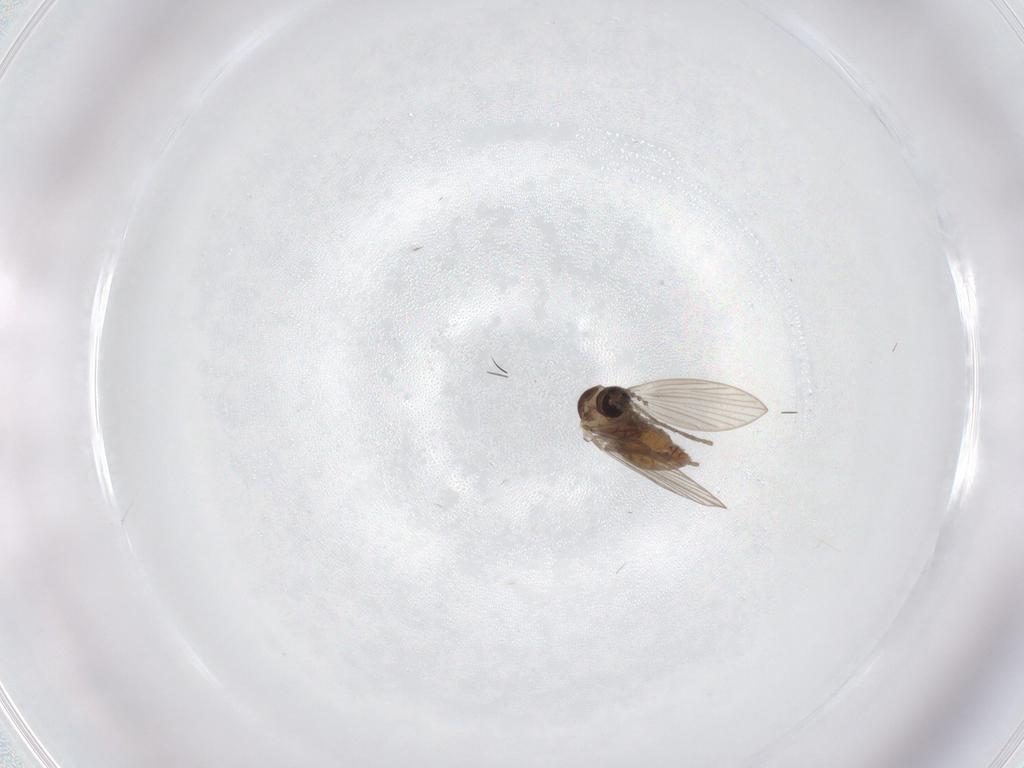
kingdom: Animalia
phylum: Arthropoda
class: Insecta
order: Diptera
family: Psychodidae
